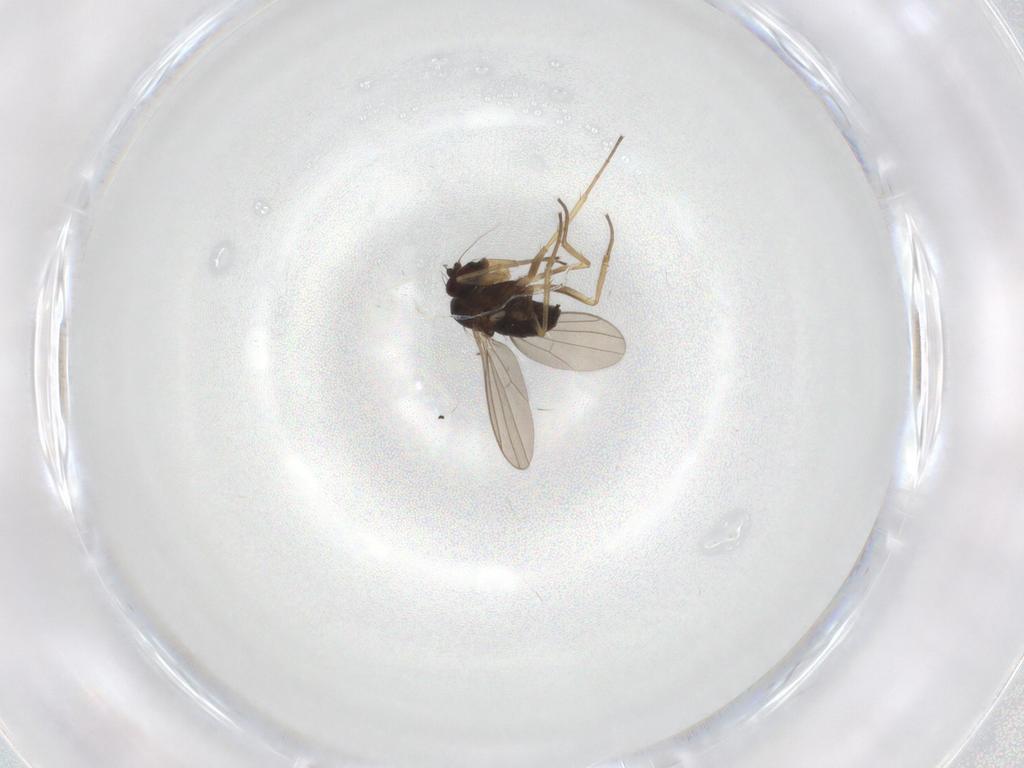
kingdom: Animalia
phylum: Arthropoda
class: Insecta
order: Diptera
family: Dolichopodidae
